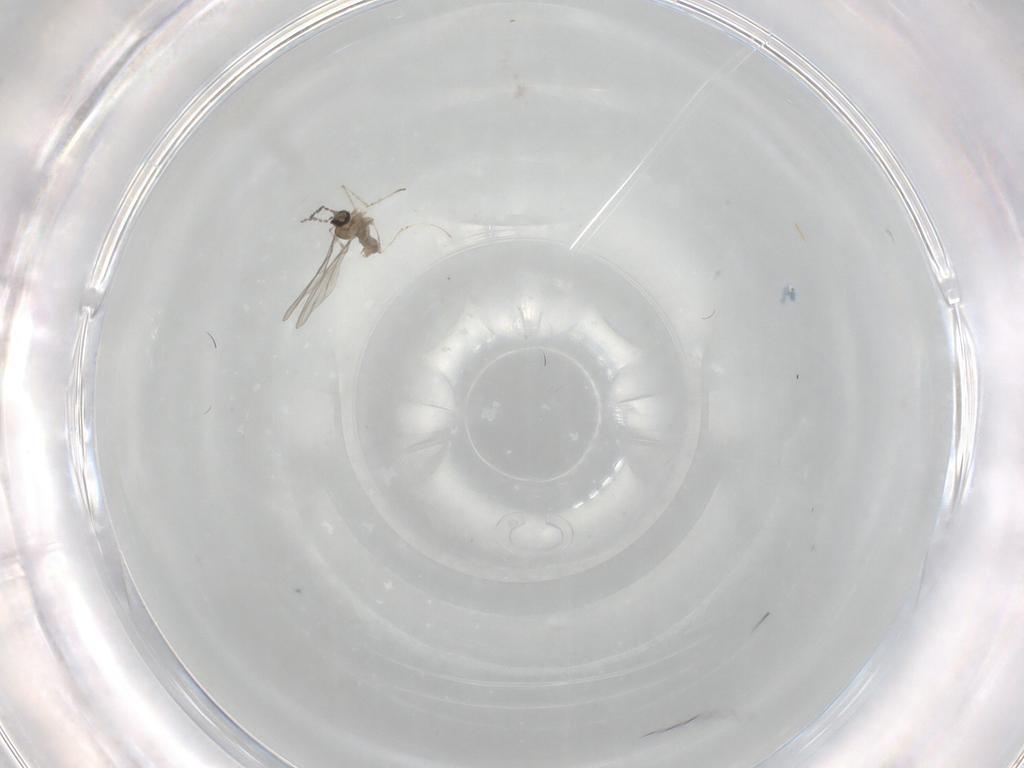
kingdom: Animalia
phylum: Arthropoda
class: Insecta
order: Diptera
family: Cecidomyiidae
